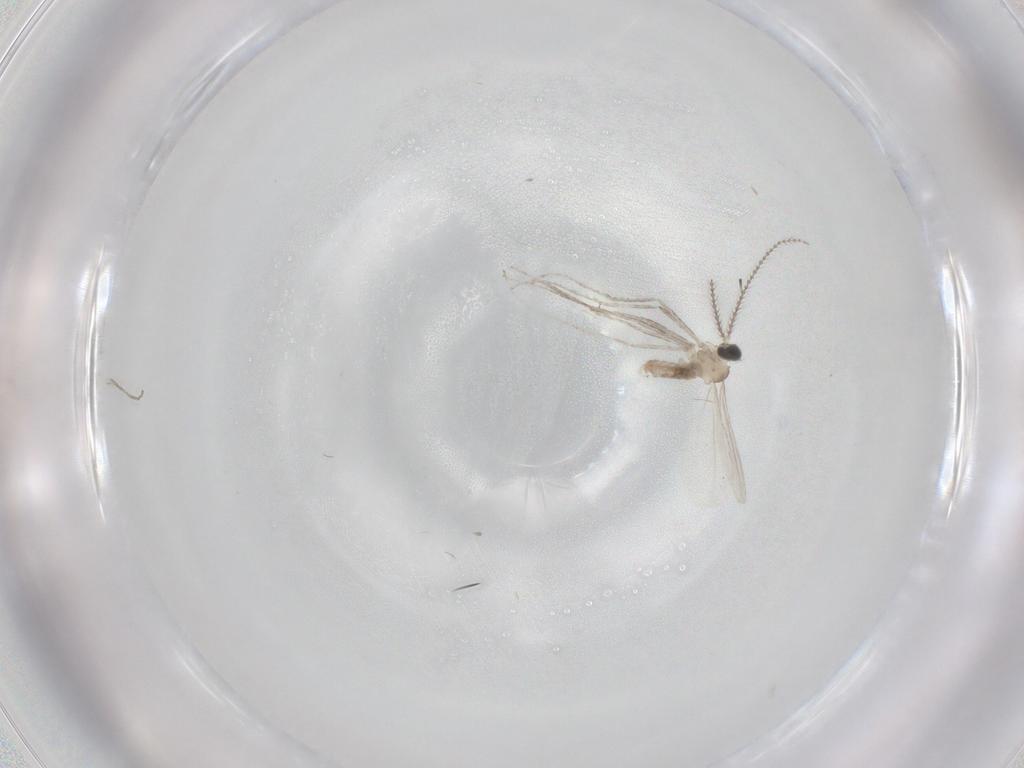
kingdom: Animalia
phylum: Arthropoda
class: Insecta
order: Diptera
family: Cecidomyiidae
